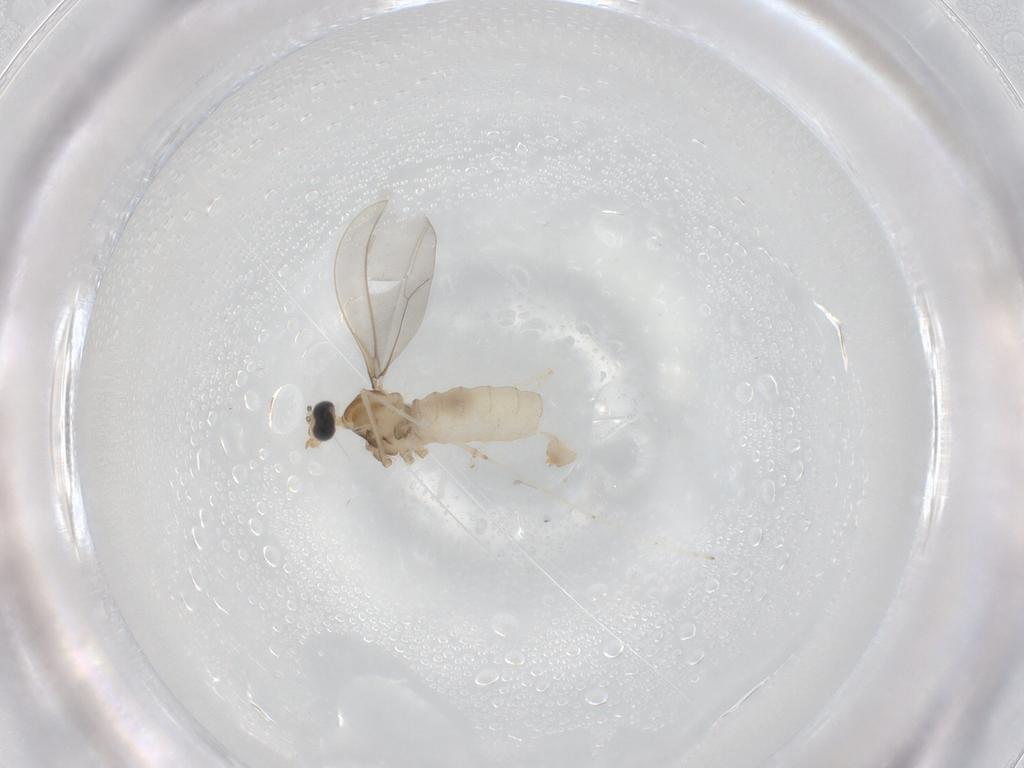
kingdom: Animalia
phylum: Arthropoda
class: Insecta
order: Diptera
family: Cecidomyiidae
